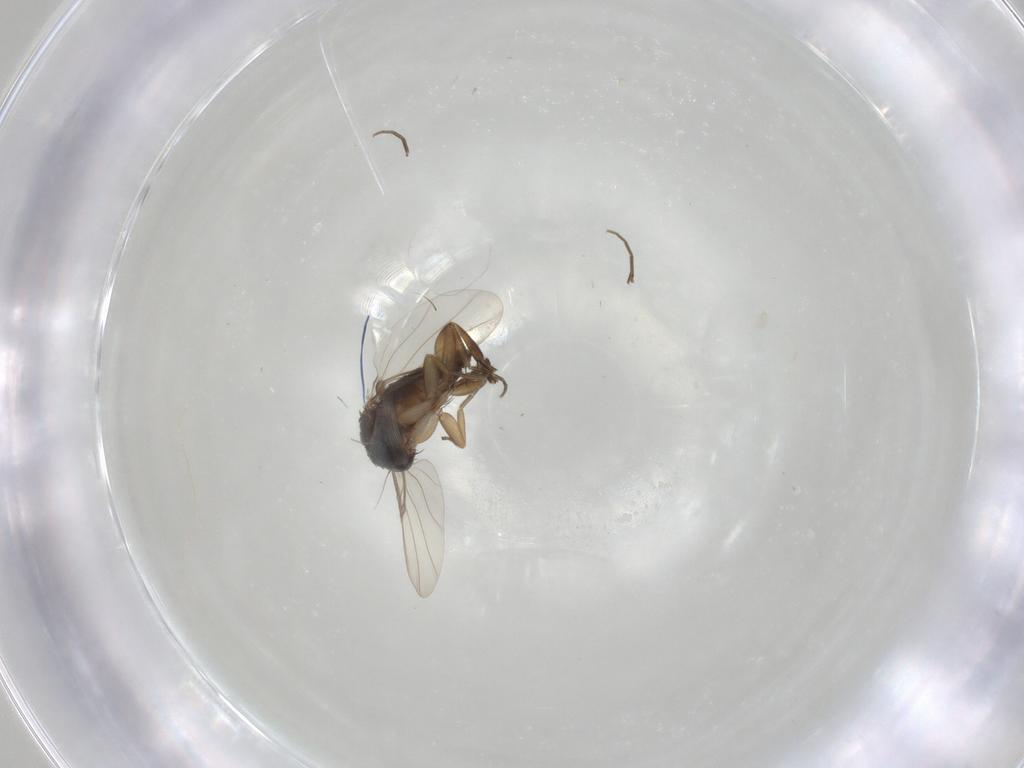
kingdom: Animalia
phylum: Arthropoda
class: Insecta
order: Diptera
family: Phoridae
